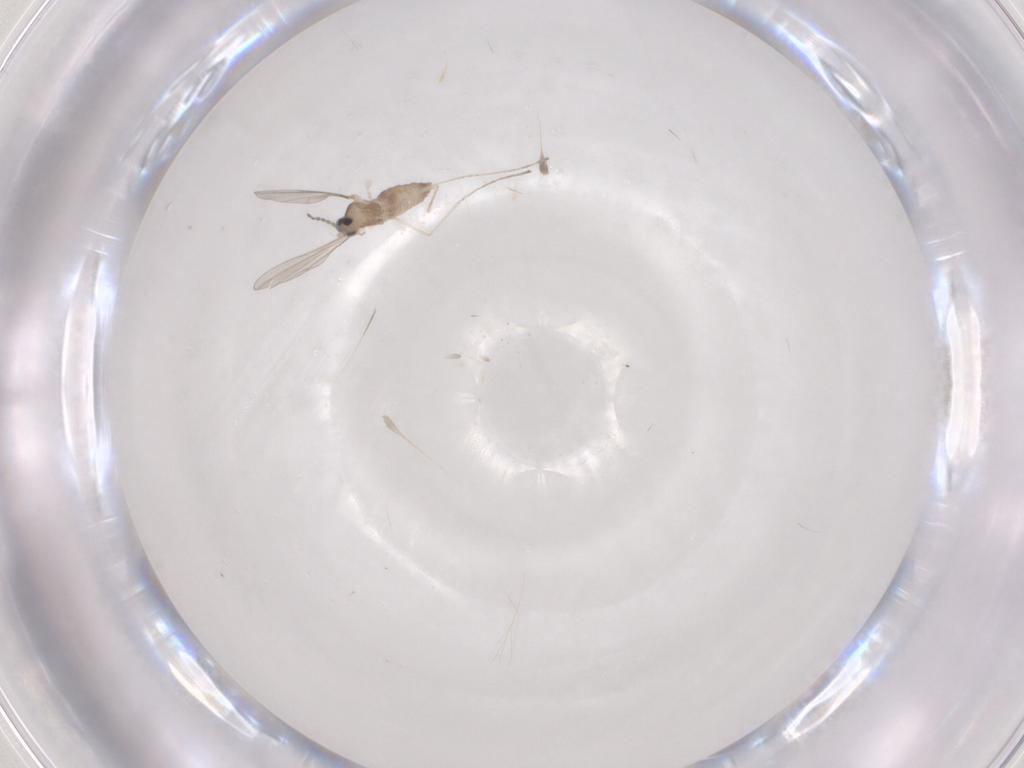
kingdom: Animalia
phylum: Arthropoda
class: Insecta
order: Diptera
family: Cecidomyiidae
